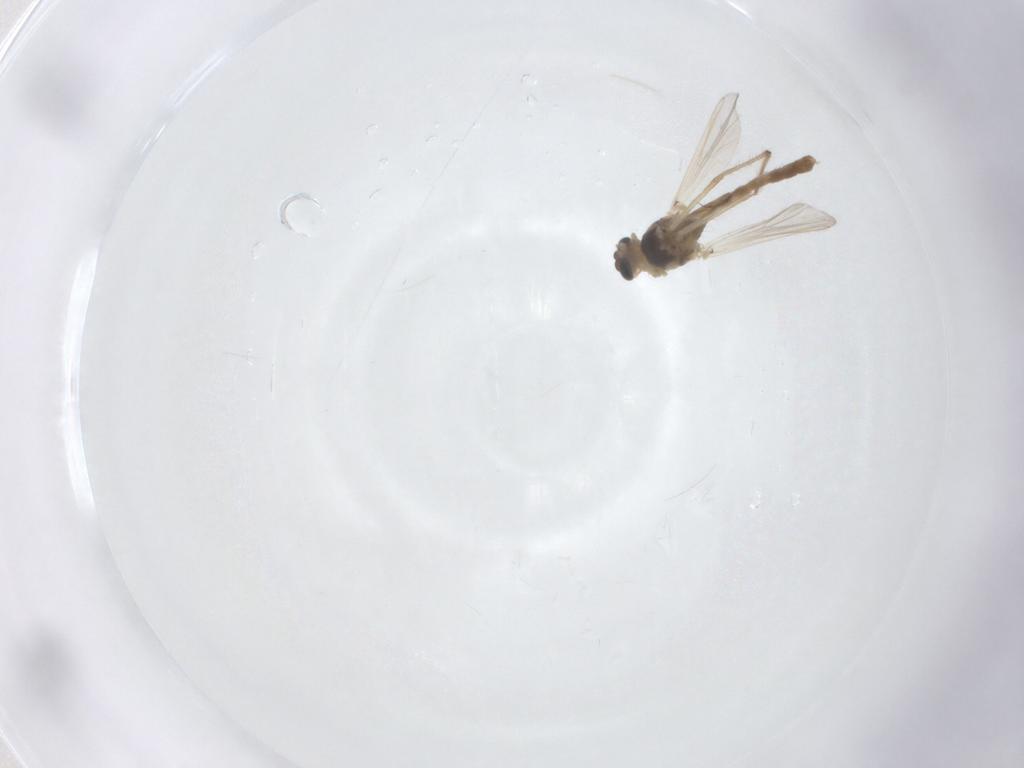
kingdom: Animalia
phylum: Arthropoda
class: Insecta
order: Diptera
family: Chironomidae
